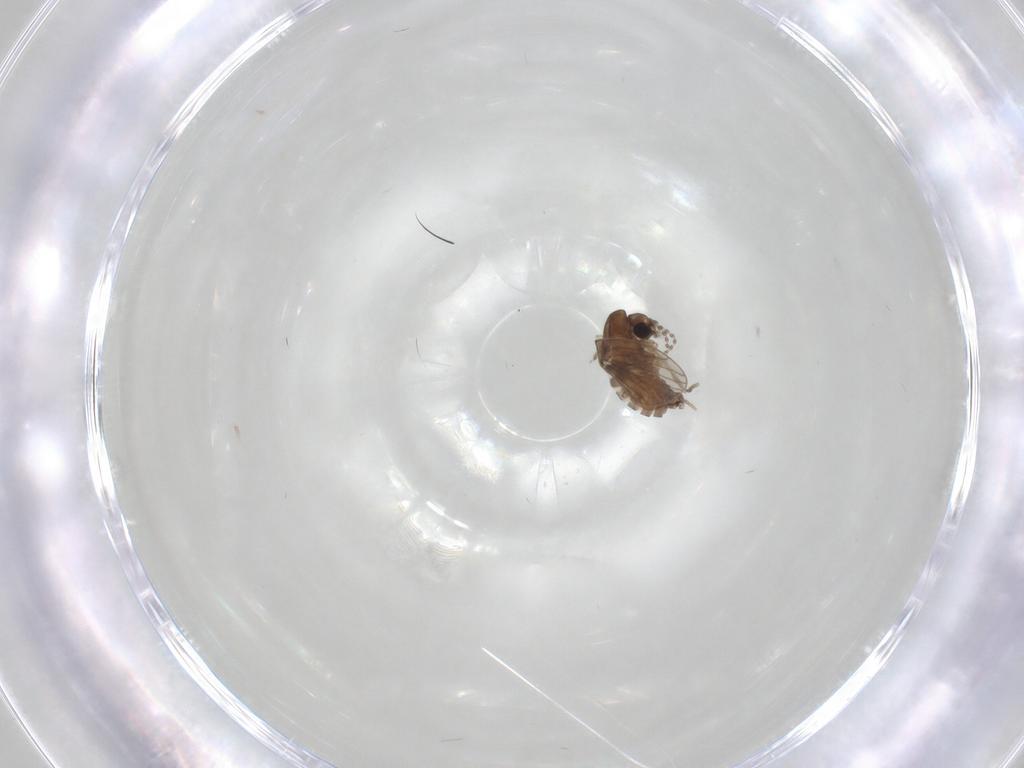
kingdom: Animalia
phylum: Arthropoda
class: Insecta
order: Diptera
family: Psychodidae
